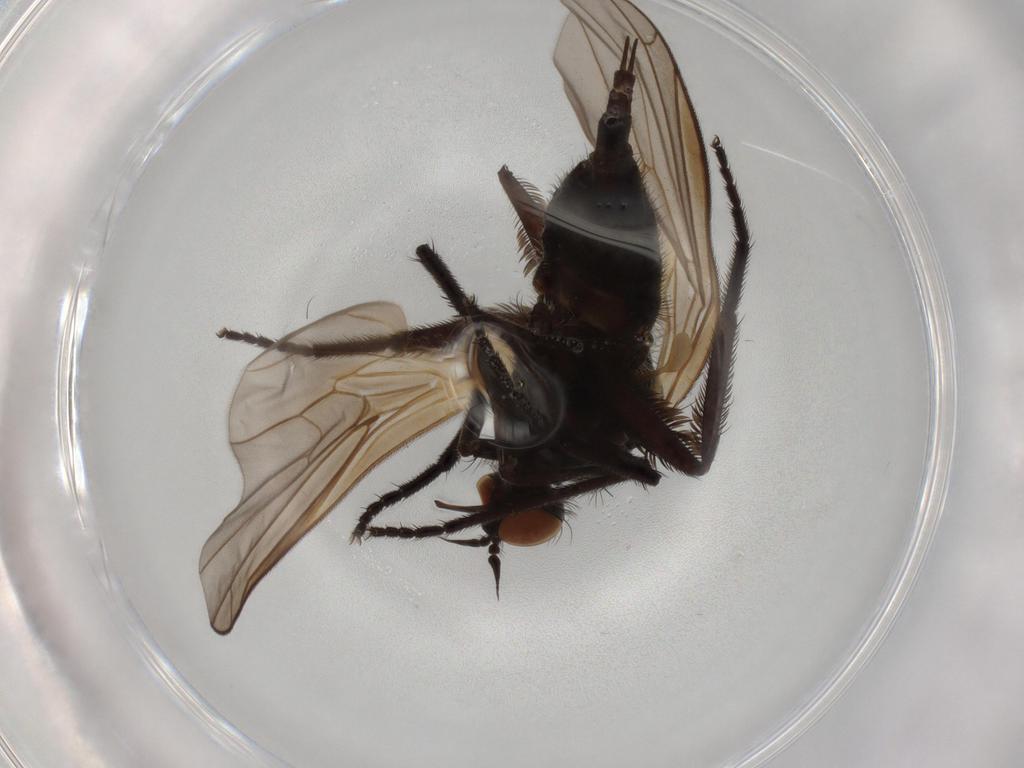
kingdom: Animalia
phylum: Arthropoda
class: Insecta
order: Diptera
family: Empididae
